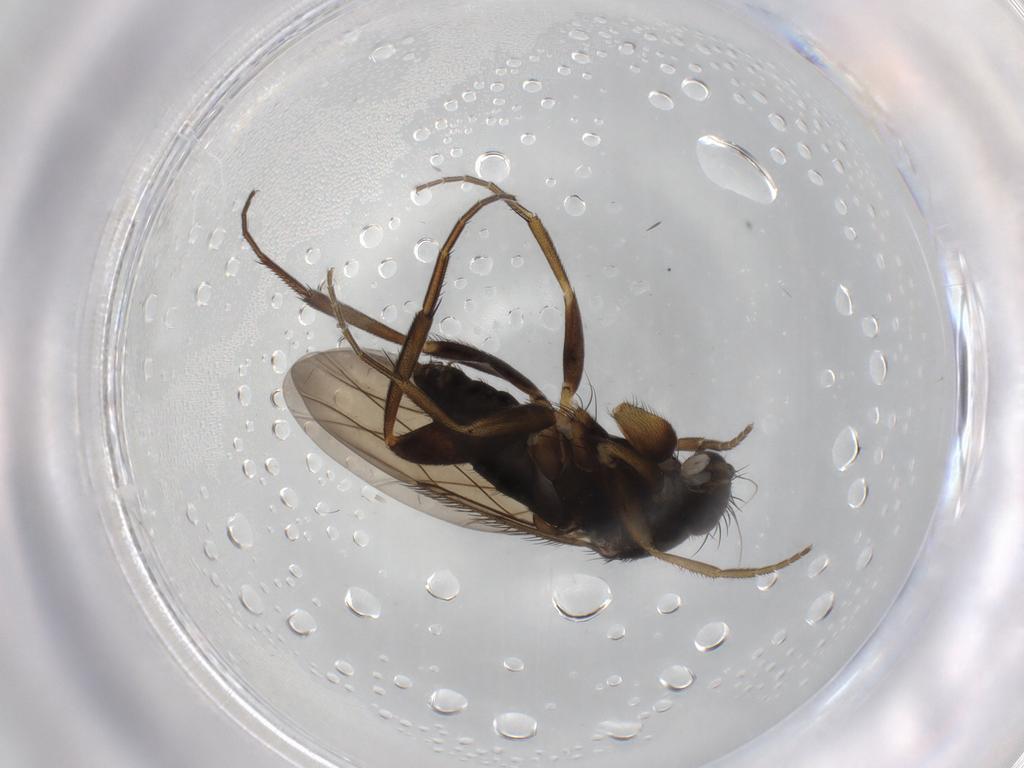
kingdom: Animalia
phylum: Arthropoda
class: Insecta
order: Diptera
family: Phoridae
